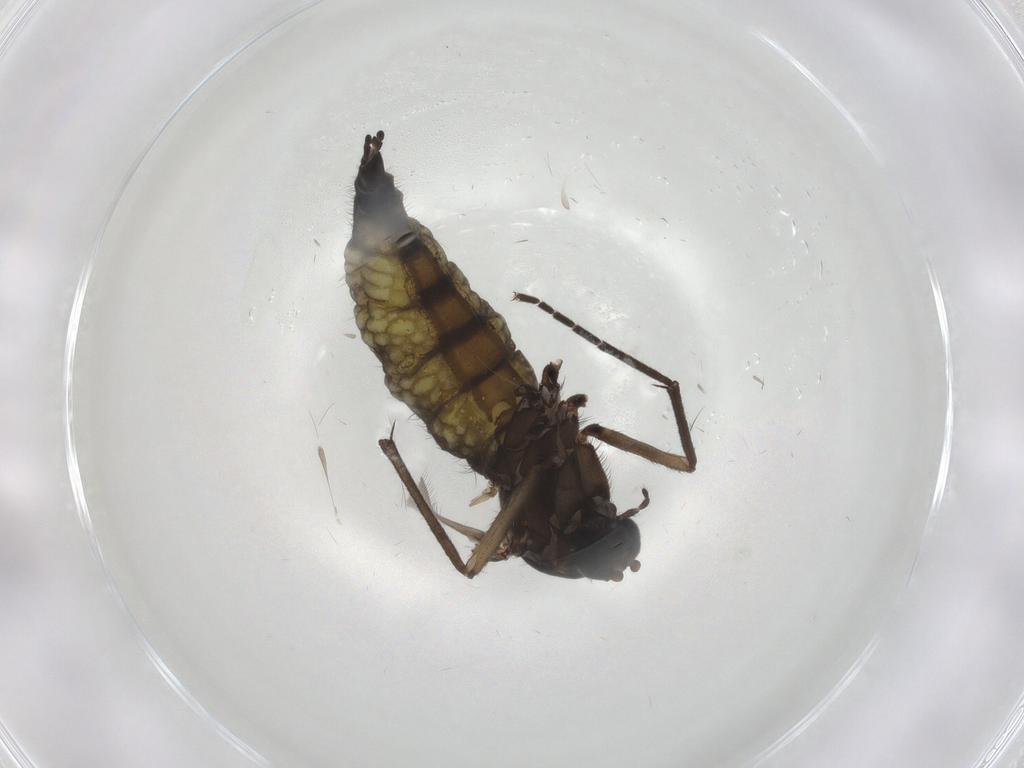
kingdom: Animalia
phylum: Arthropoda
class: Insecta
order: Diptera
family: Sciaridae
